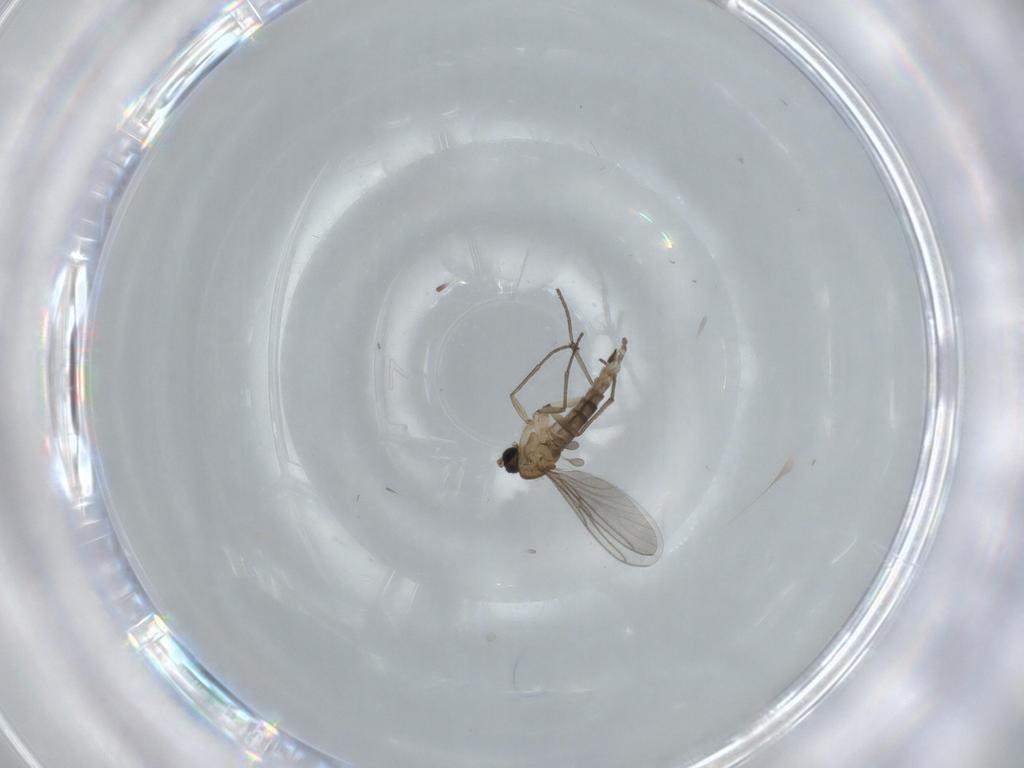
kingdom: Animalia
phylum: Arthropoda
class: Insecta
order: Diptera
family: Sciaridae
